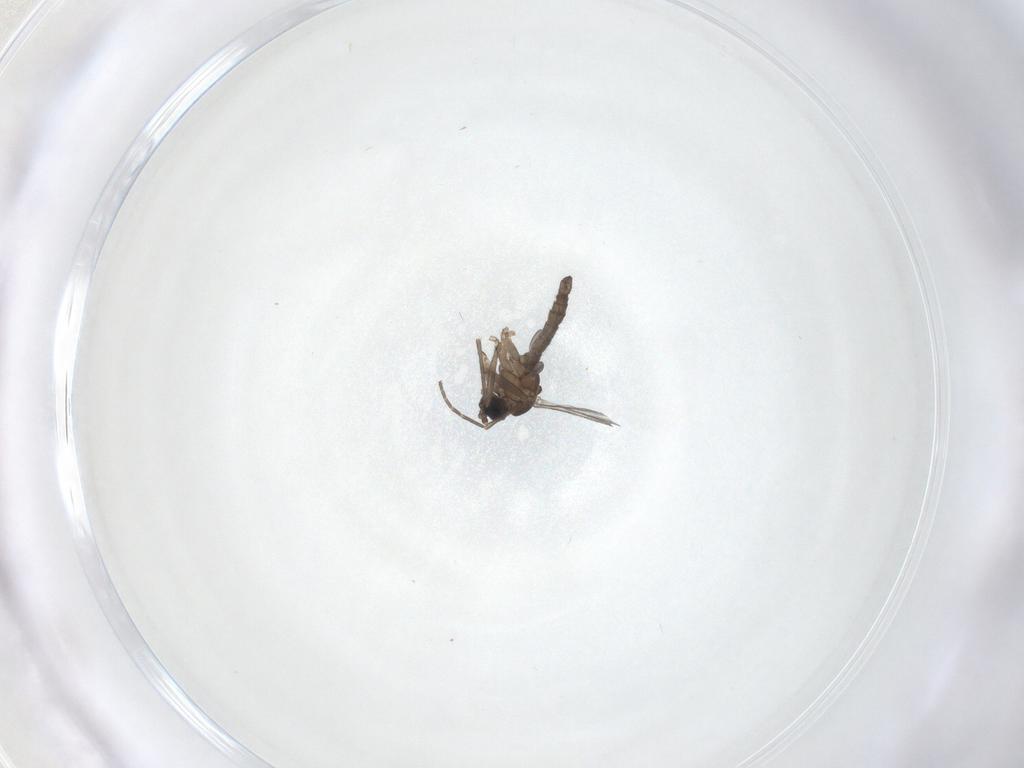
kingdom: Animalia
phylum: Arthropoda
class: Insecta
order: Diptera
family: Sciaridae
